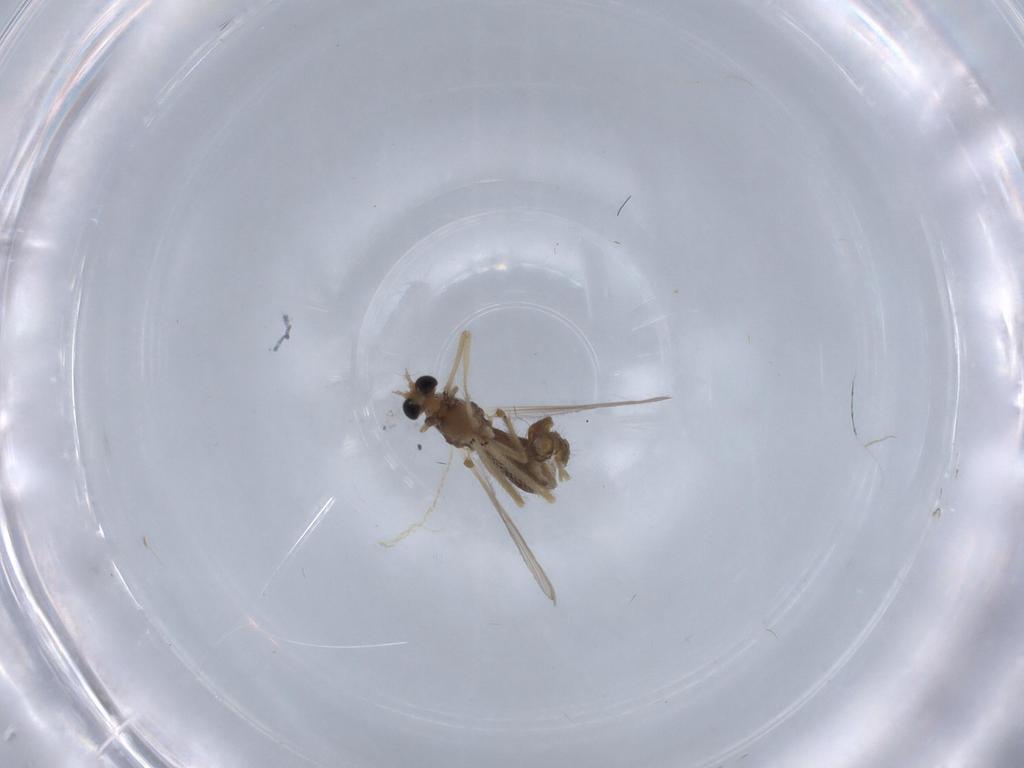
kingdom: Animalia
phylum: Arthropoda
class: Insecta
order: Diptera
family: Chironomidae
